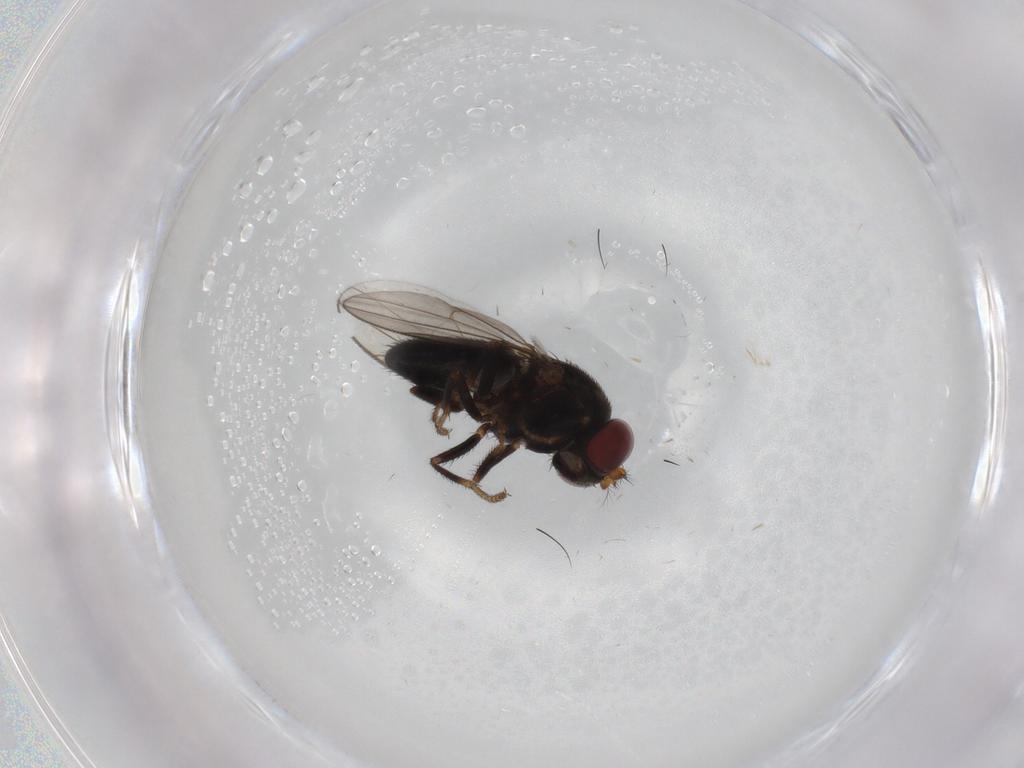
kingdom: Animalia
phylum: Arthropoda
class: Insecta
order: Diptera
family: Ephydridae
